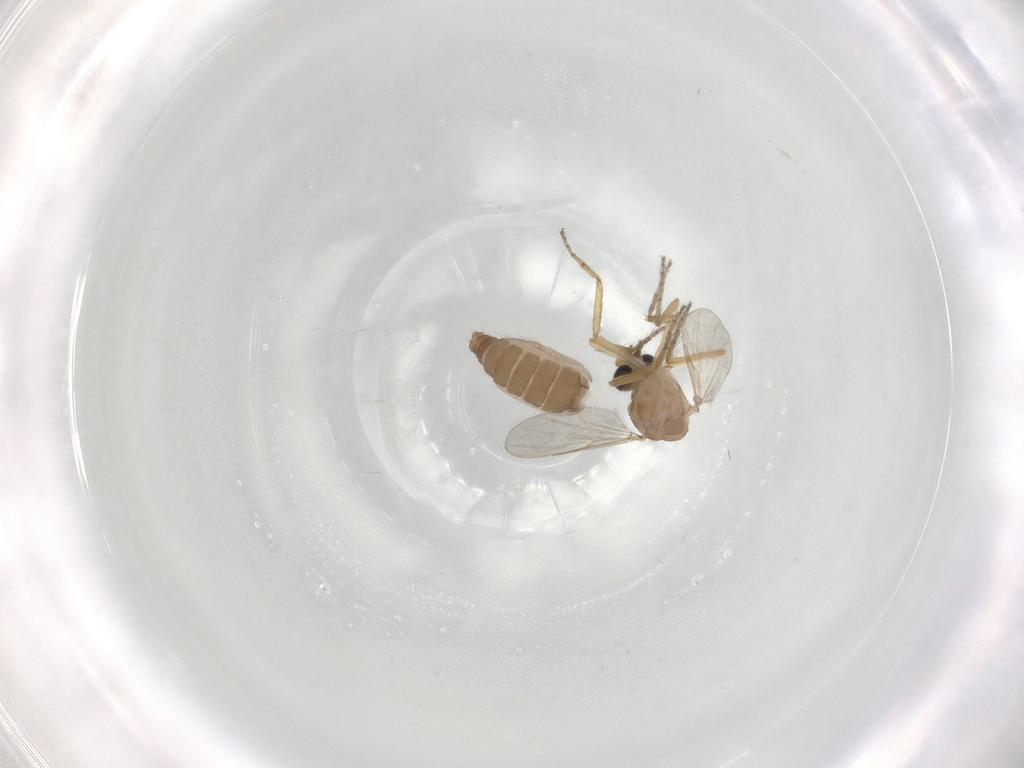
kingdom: Animalia
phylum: Arthropoda
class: Insecta
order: Diptera
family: Ceratopogonidae
